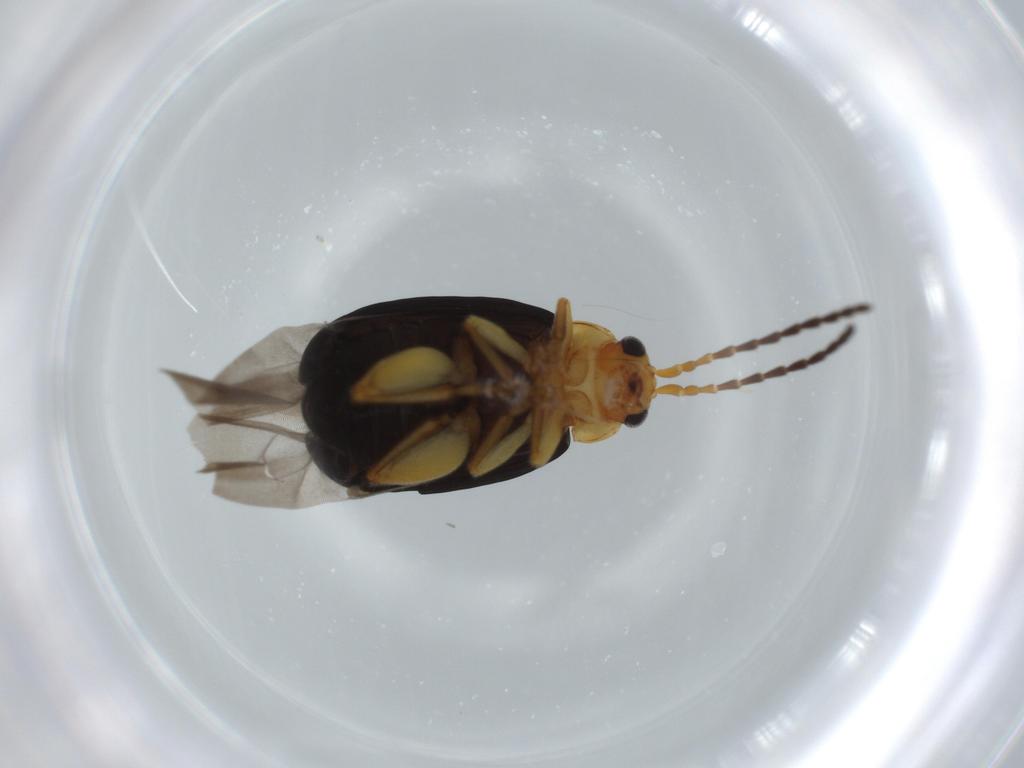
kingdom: Animalia
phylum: Arthropoda
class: Insecta
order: Coleoptera
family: Chrysomelidae
